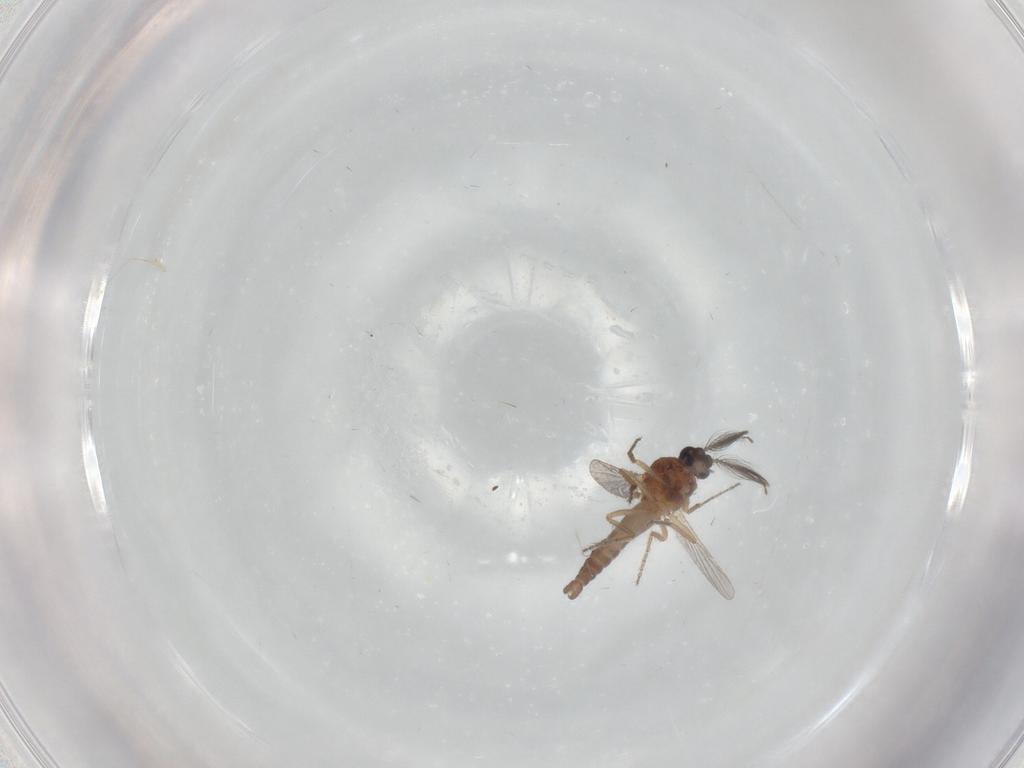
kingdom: Animalia
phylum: Arthropoda
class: Insecta
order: Diptera
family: Ceratopogonidae
